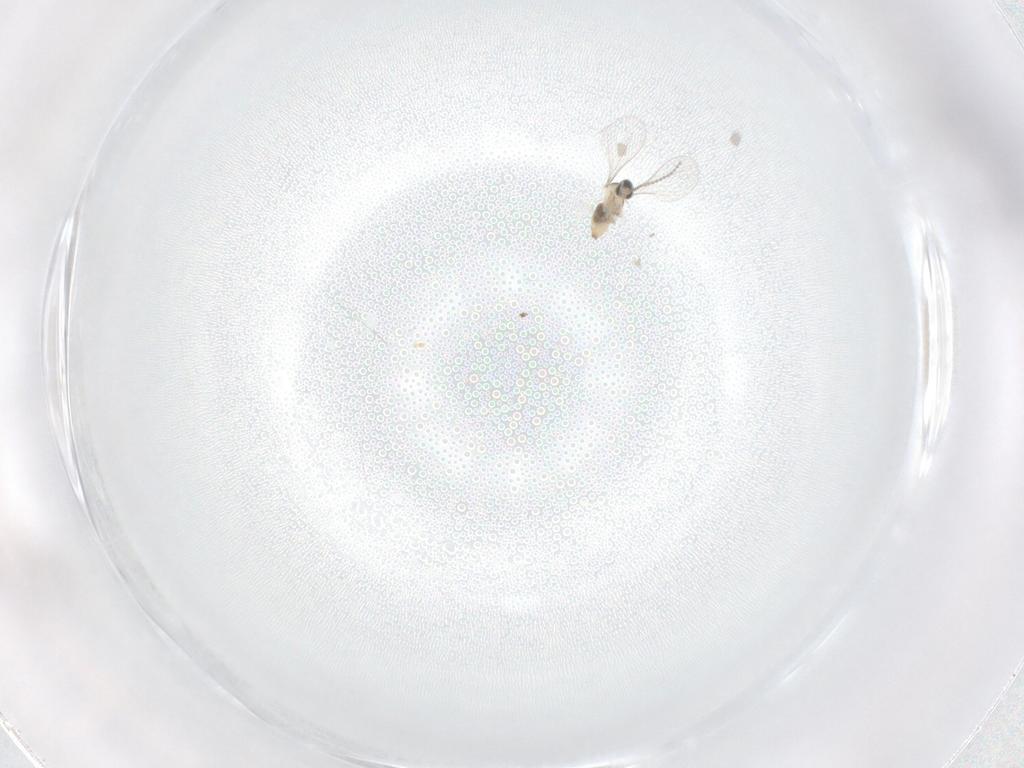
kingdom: Animalia
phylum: Arthropoda
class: Insecta
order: Diptera
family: Cecidomyiidae
